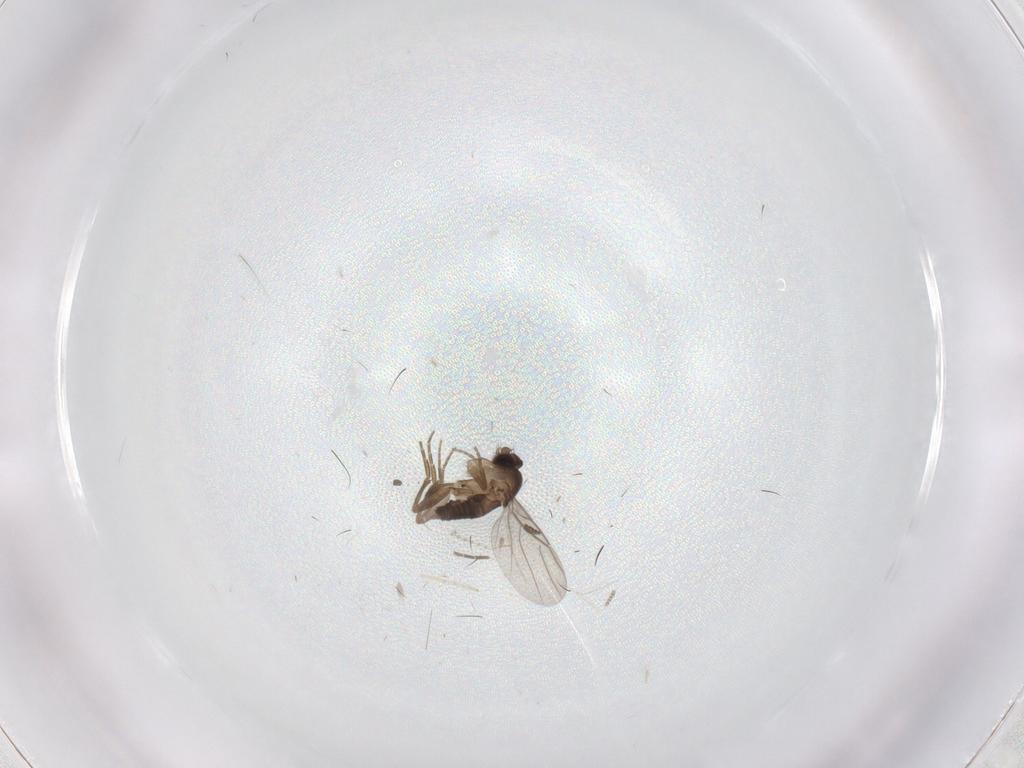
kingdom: Animalia
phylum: Arthropoda
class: Insecta
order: Diptera
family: Phoridae
